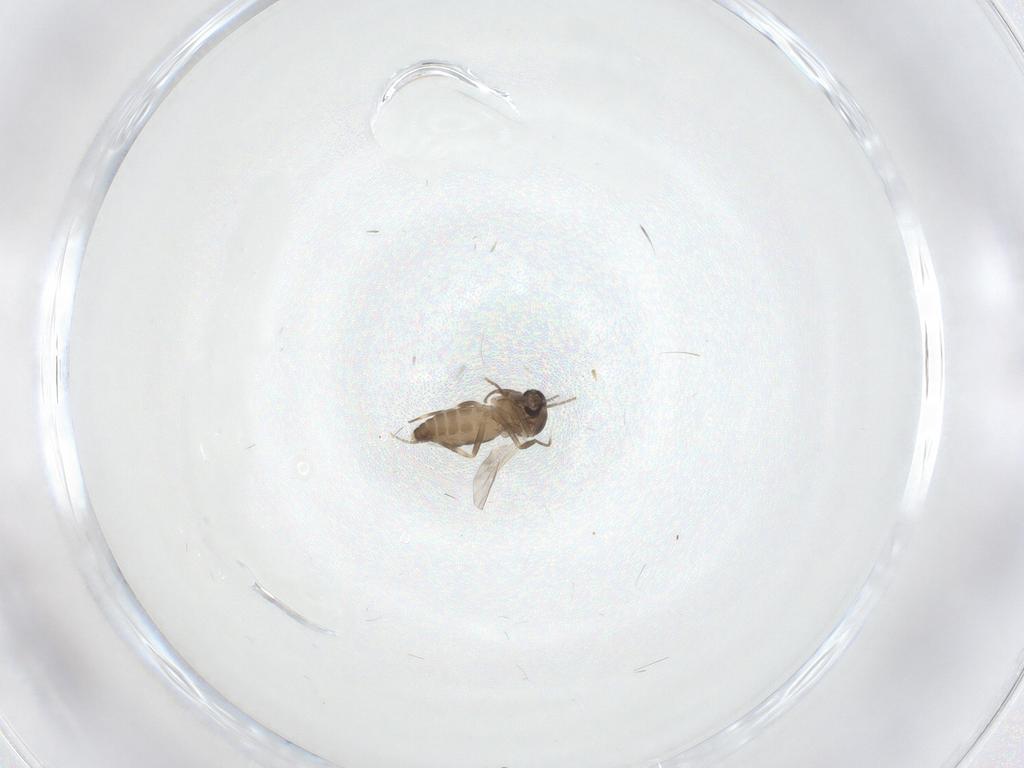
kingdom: Animalia
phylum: Arthropoda
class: Insecta
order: Diptera
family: Ceratopogonidae
